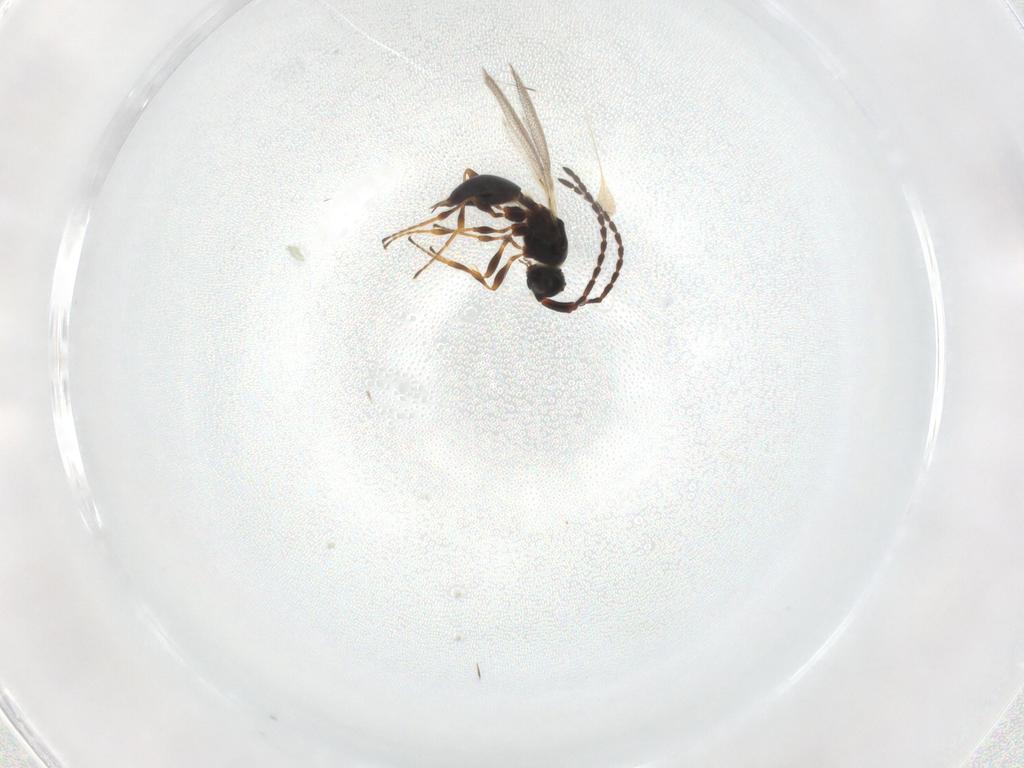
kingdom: Animalia
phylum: Arthropoda
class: Insecta
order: Hymenoptera
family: Diapriidae
